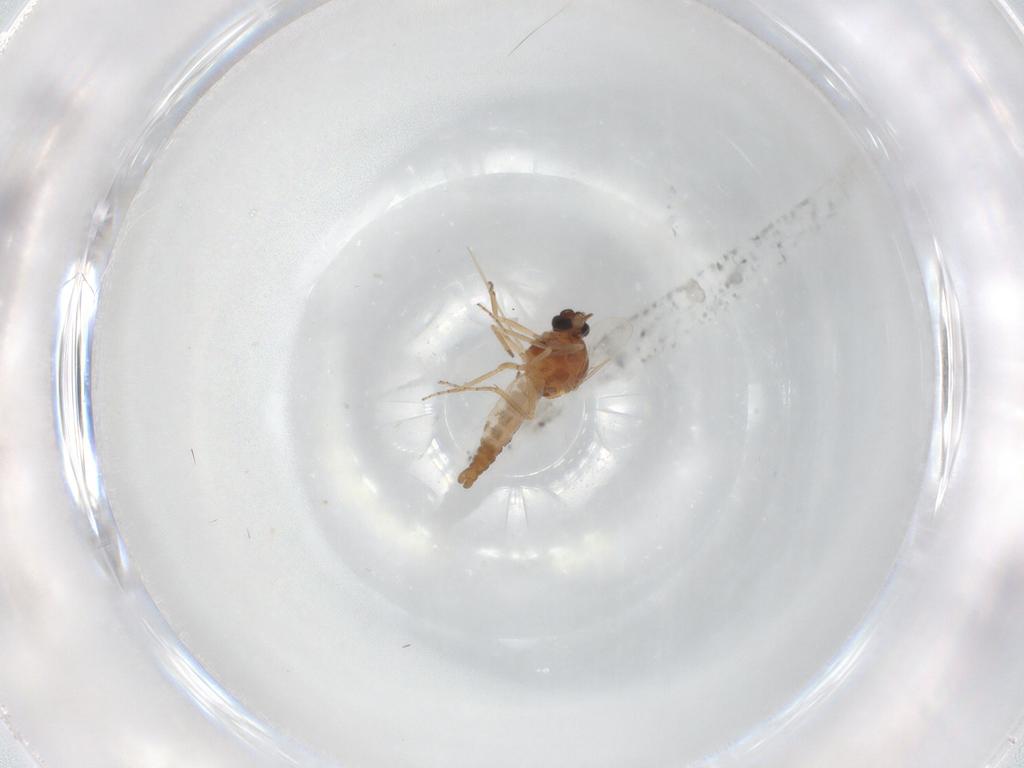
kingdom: Animalia
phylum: Arthropoda
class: Insecta
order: Diptera
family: Ceratopogonidae
